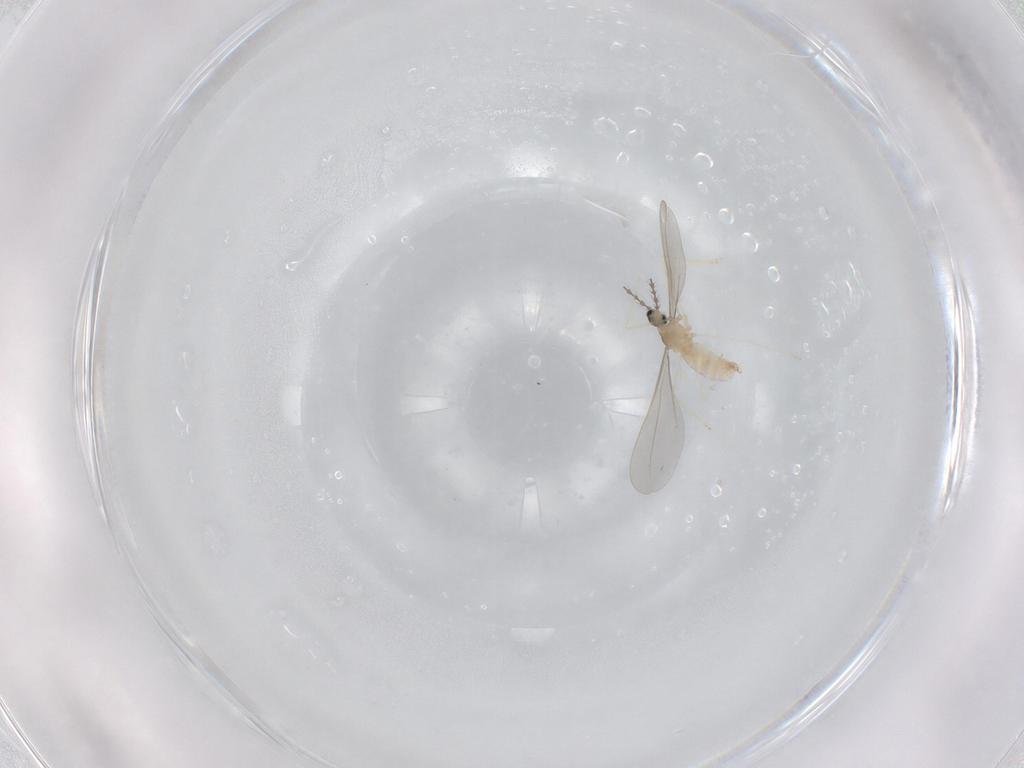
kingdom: Animalia
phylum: Arthropoda
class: Insecta
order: Diptera
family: Cecidomyiidae
